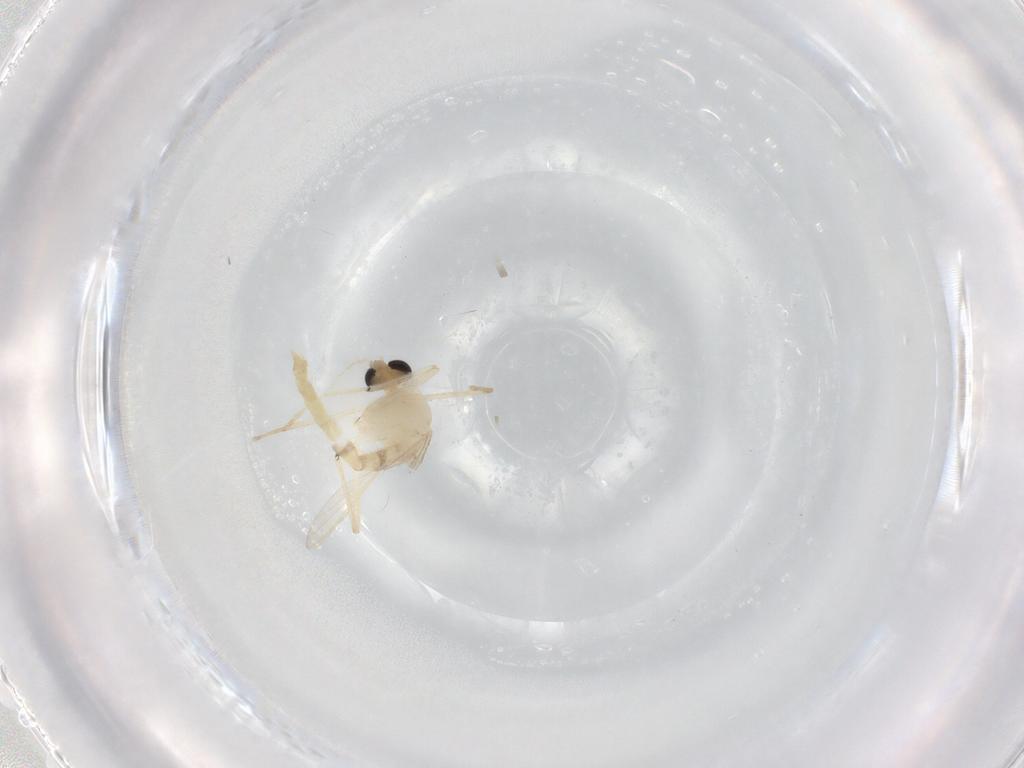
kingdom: Animalia
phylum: Arthropoda
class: Insecta
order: Diptera
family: Chironomidae
